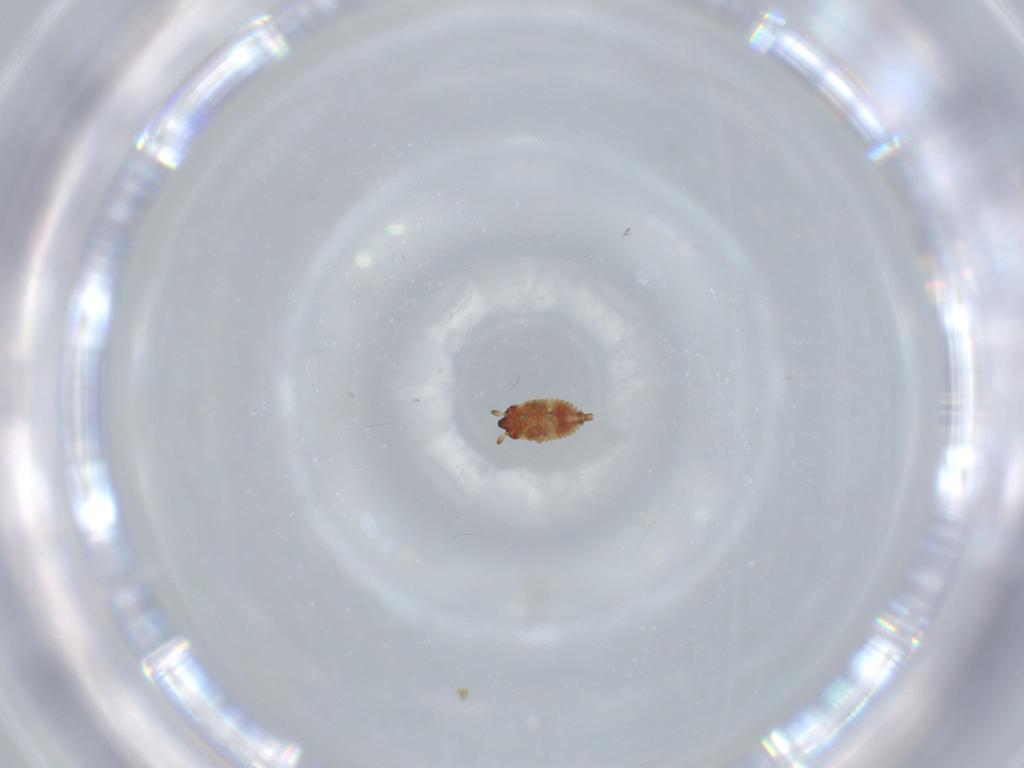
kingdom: Animalia
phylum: Arthropoda
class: Insecta
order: Hemiptera
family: Aradidae
